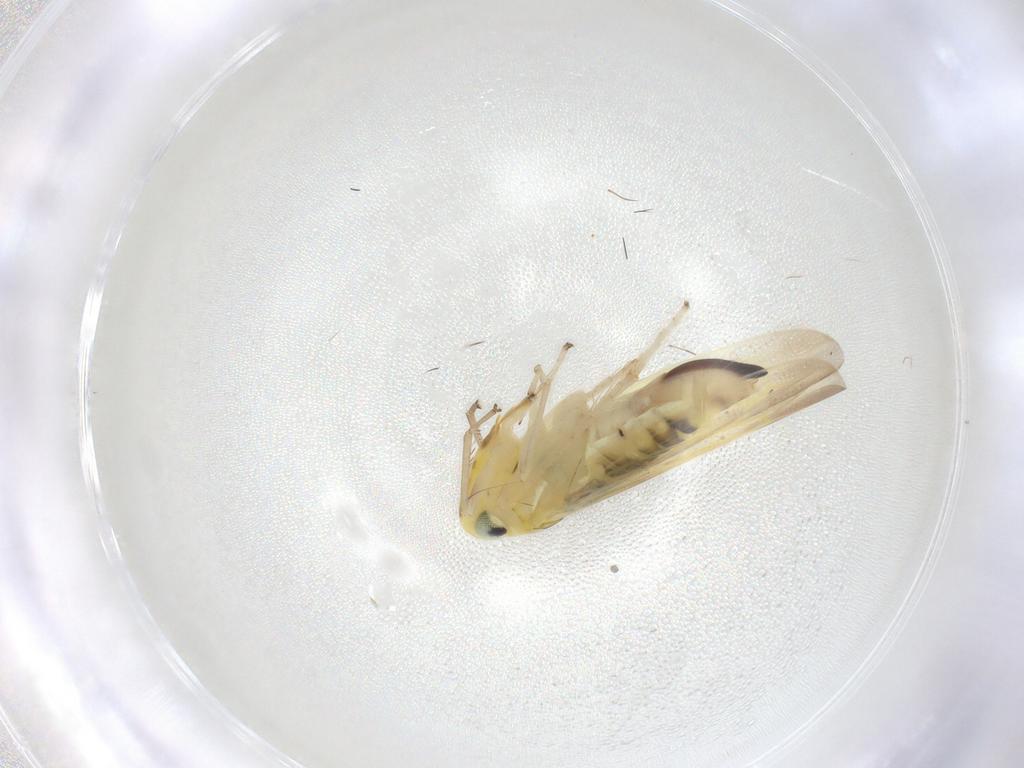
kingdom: Animalia
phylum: Arthropoda
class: Insecta
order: Hemiptera
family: Cicadellidae
